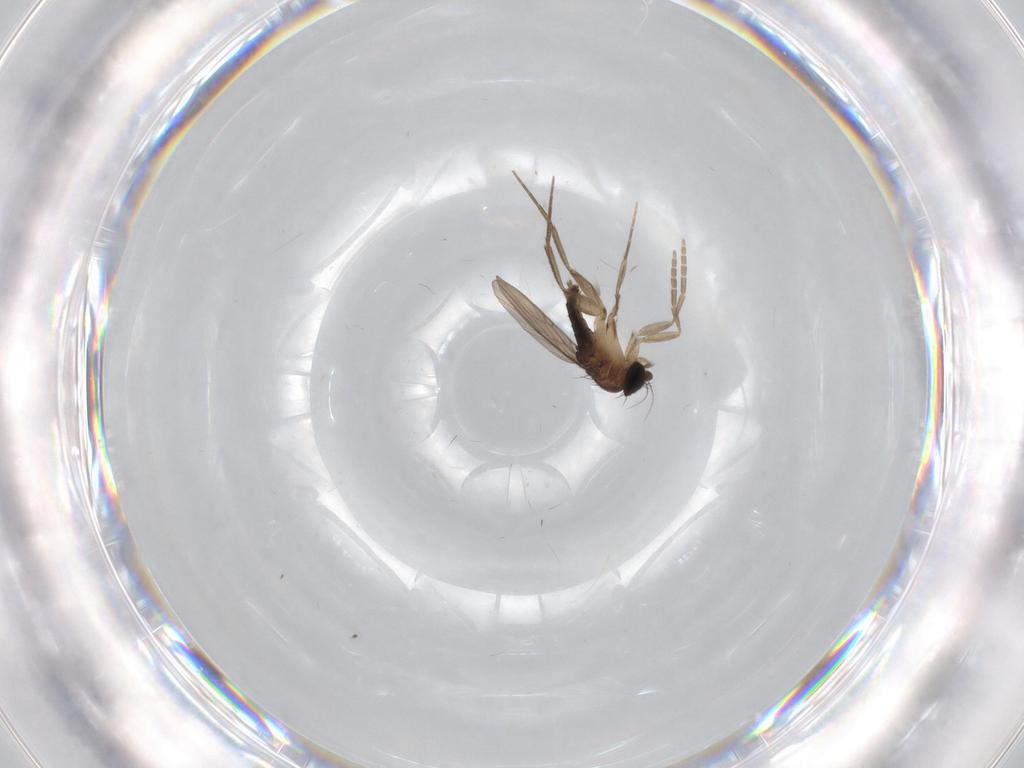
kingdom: Animalia
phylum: Arthropoda
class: Insecta
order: Diptera
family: Phoridae
